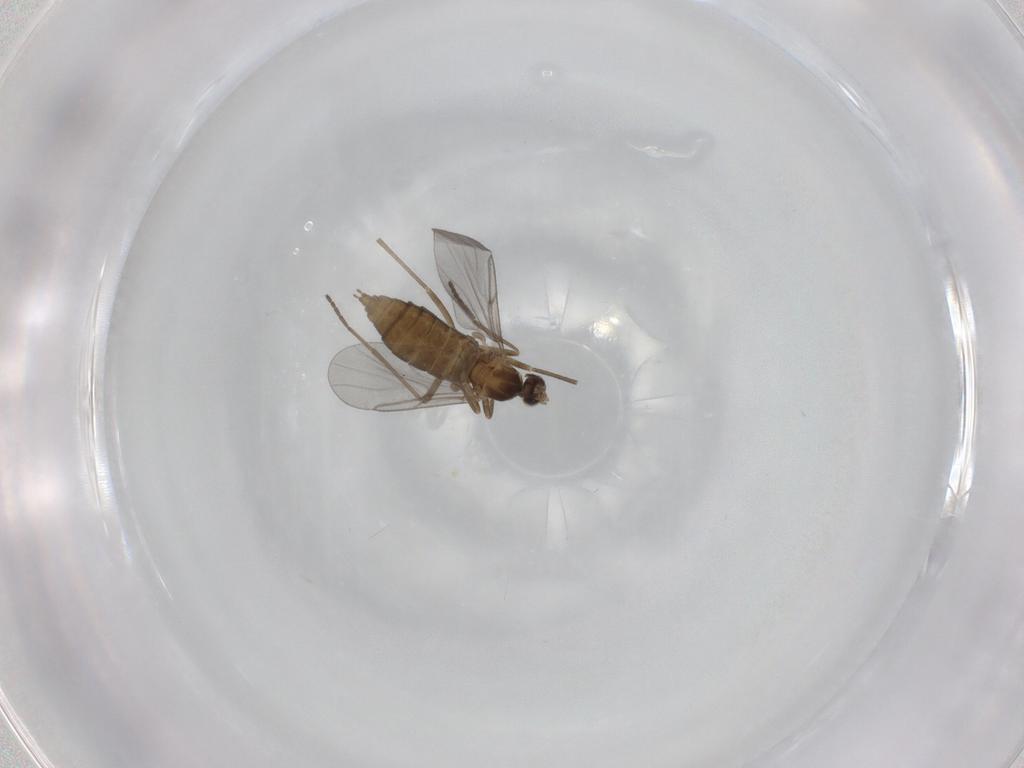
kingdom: Animalia
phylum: Arthropoda
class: Insecta
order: Diptera
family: Cecidomyiidae
